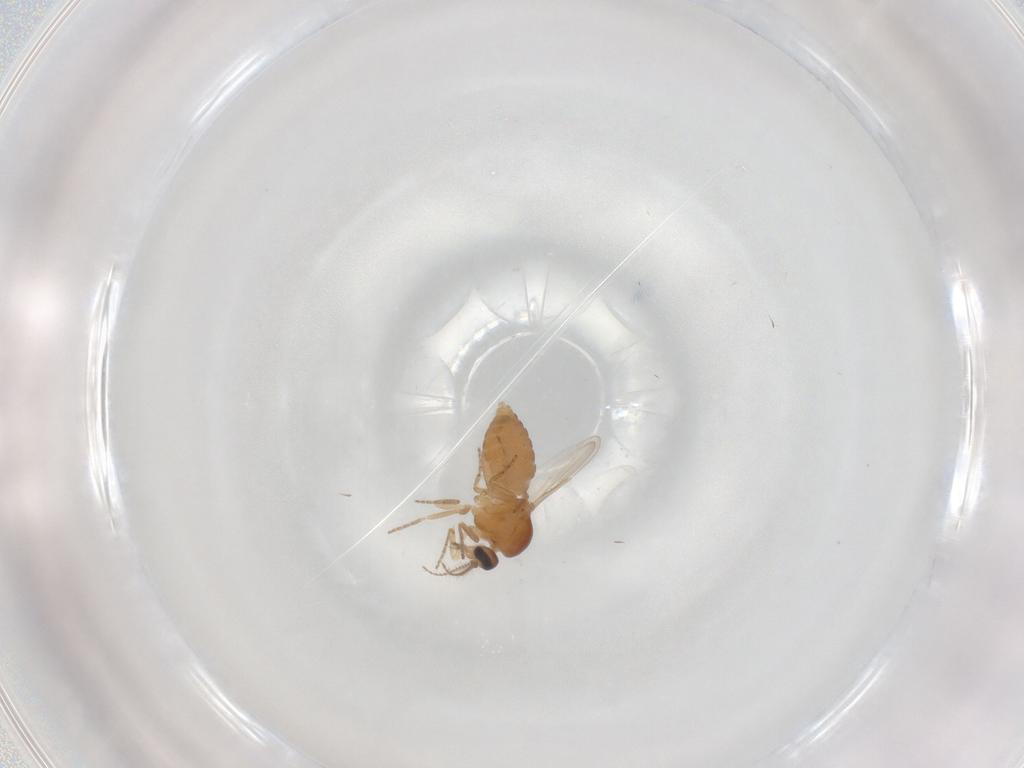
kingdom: Animalia
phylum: Arthropoda
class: Insecta
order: Diptera
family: Ceratopogonidae
